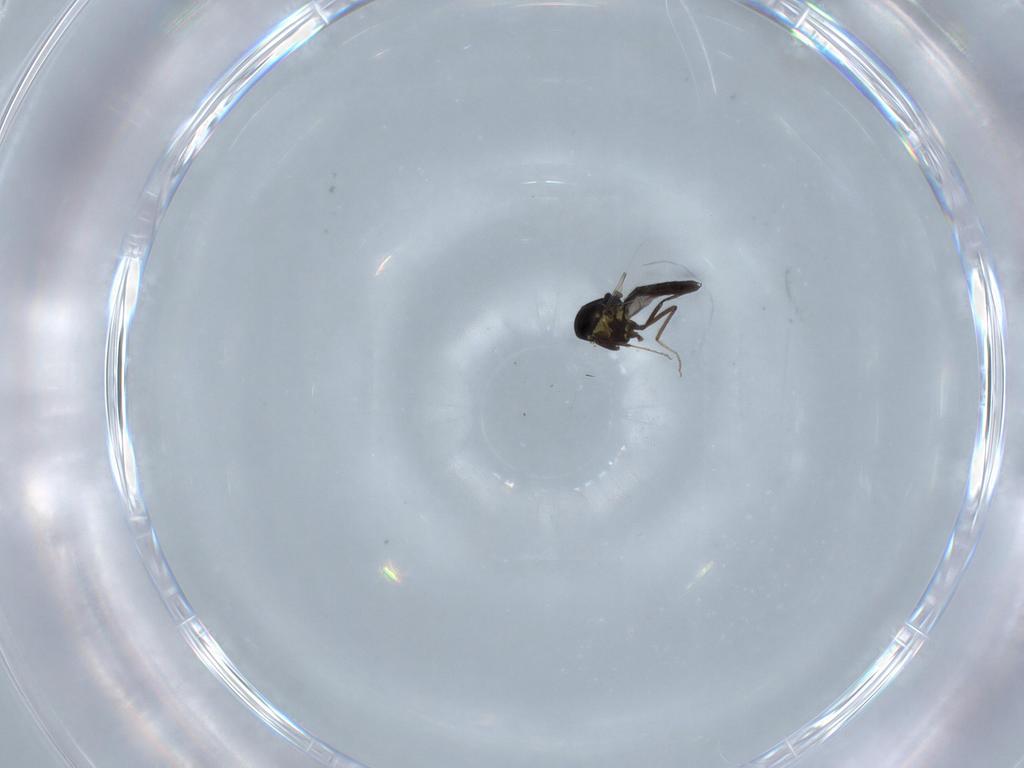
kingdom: Animalia
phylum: Arthropoda
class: Insecta
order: Diptera
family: Ceratopogonidae
